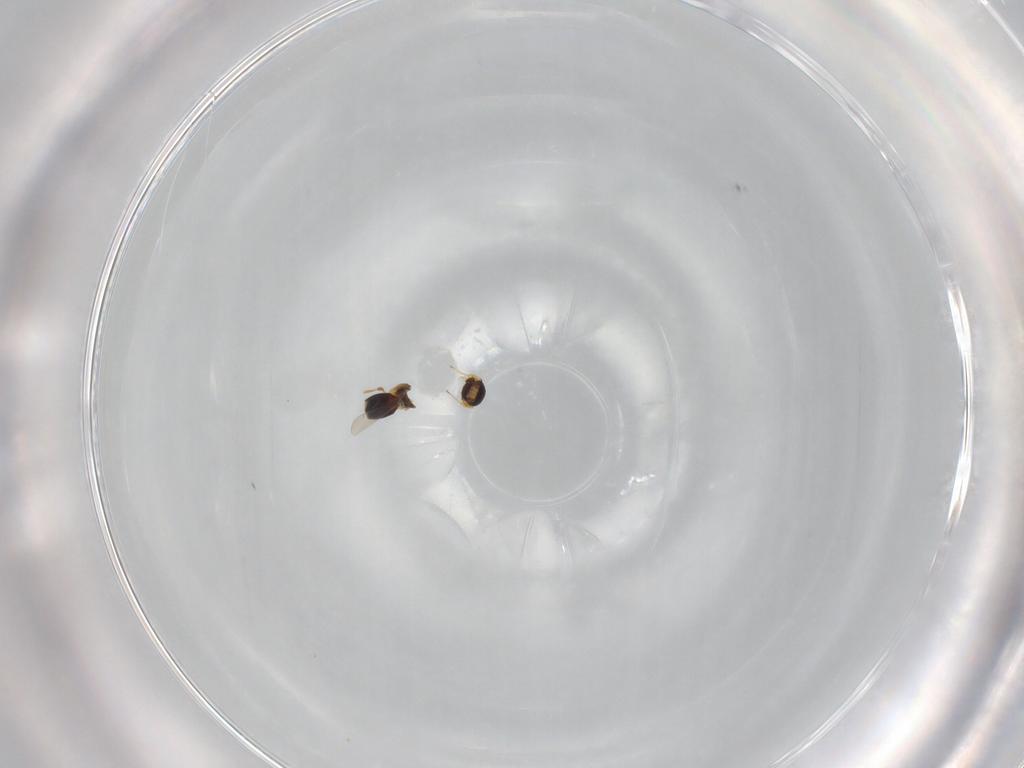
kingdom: Animalia
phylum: Arthropoda
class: Insecta
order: Hymenoptera
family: Platygastridae
